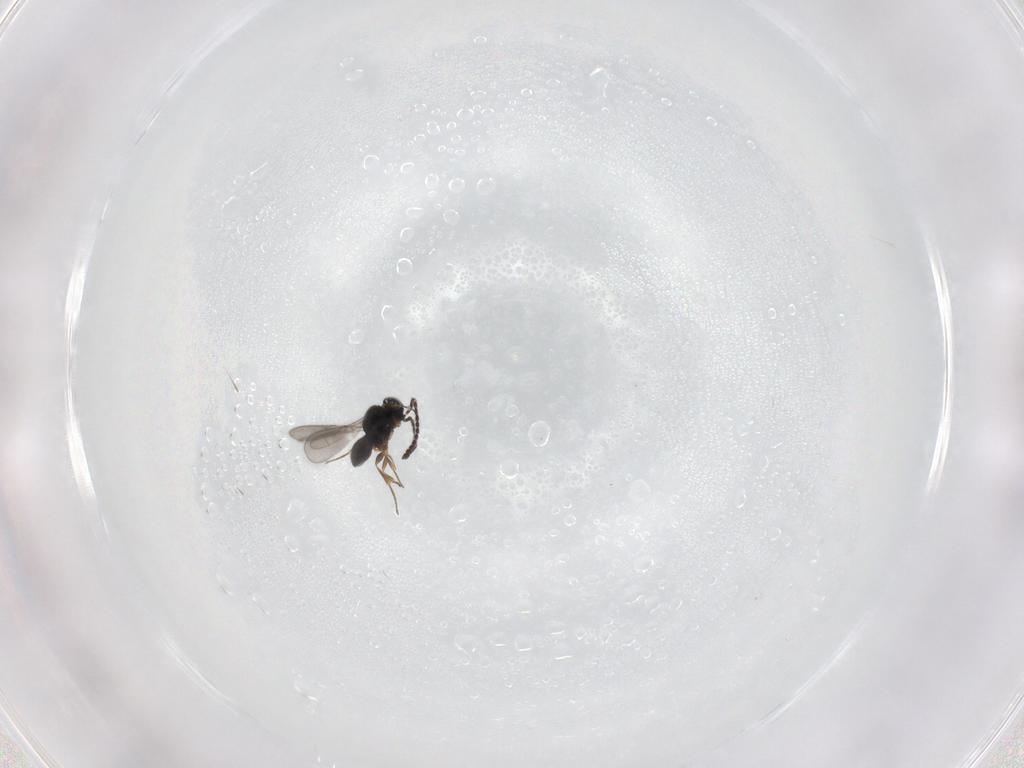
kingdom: Animalia
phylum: Arthropoda
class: Insecta
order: Hymenoptera
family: Scelionidae
